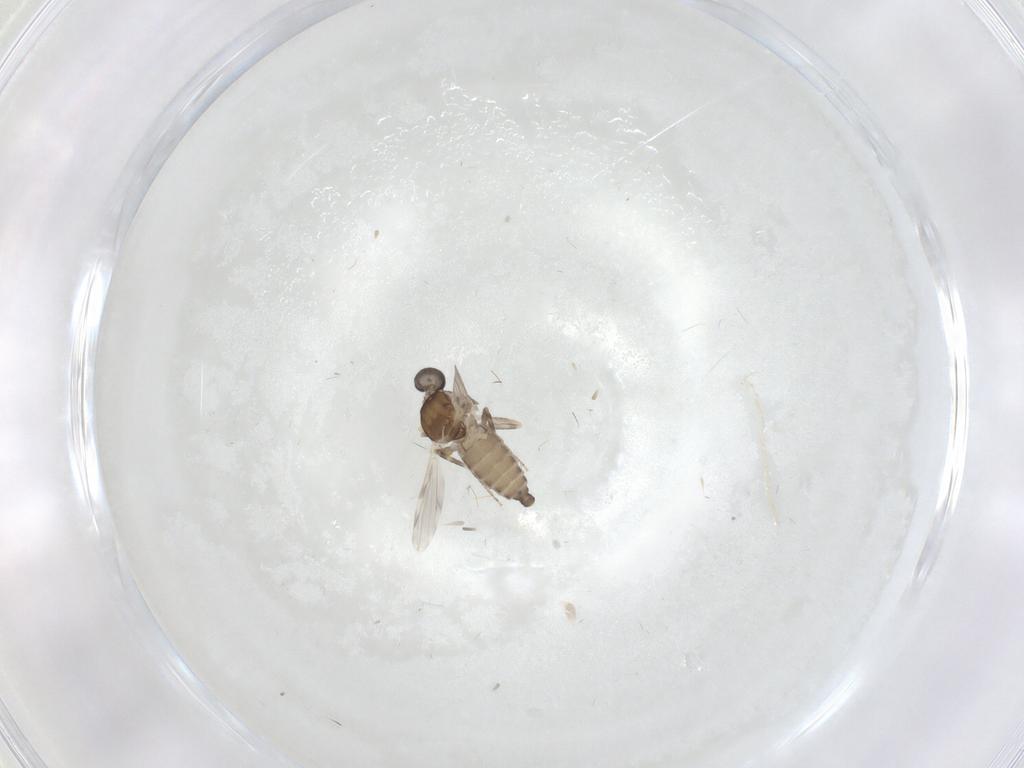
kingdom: Animalia
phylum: Arthropoda
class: Insecta
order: Diptera
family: Ceratopogonidae
